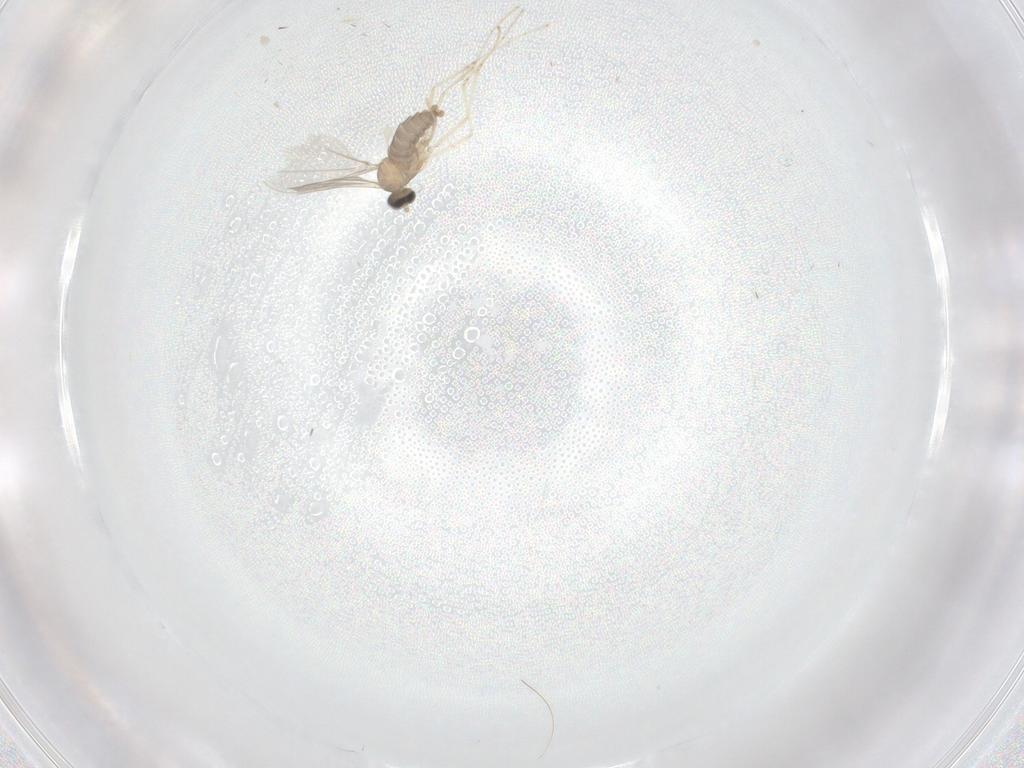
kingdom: Animalia
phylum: Arthropoda
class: Insecta
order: Diptera
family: Cecidomyiidae
